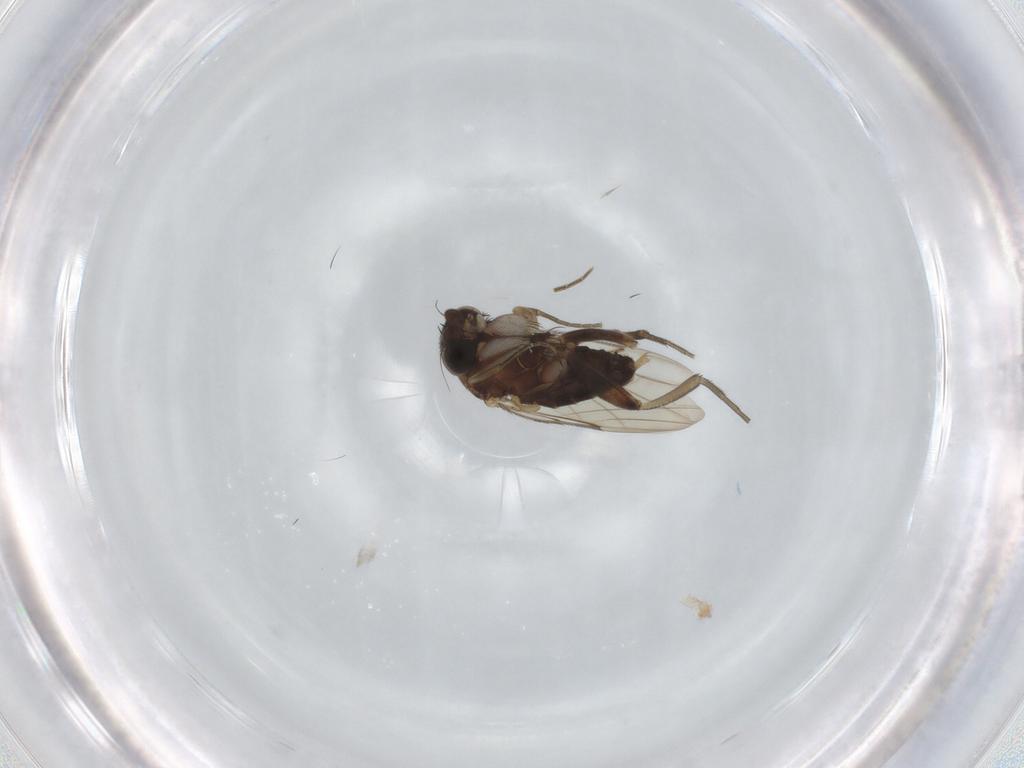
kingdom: Animalia
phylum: Arthropoda
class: Insecta
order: Diptera
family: Phoridae
